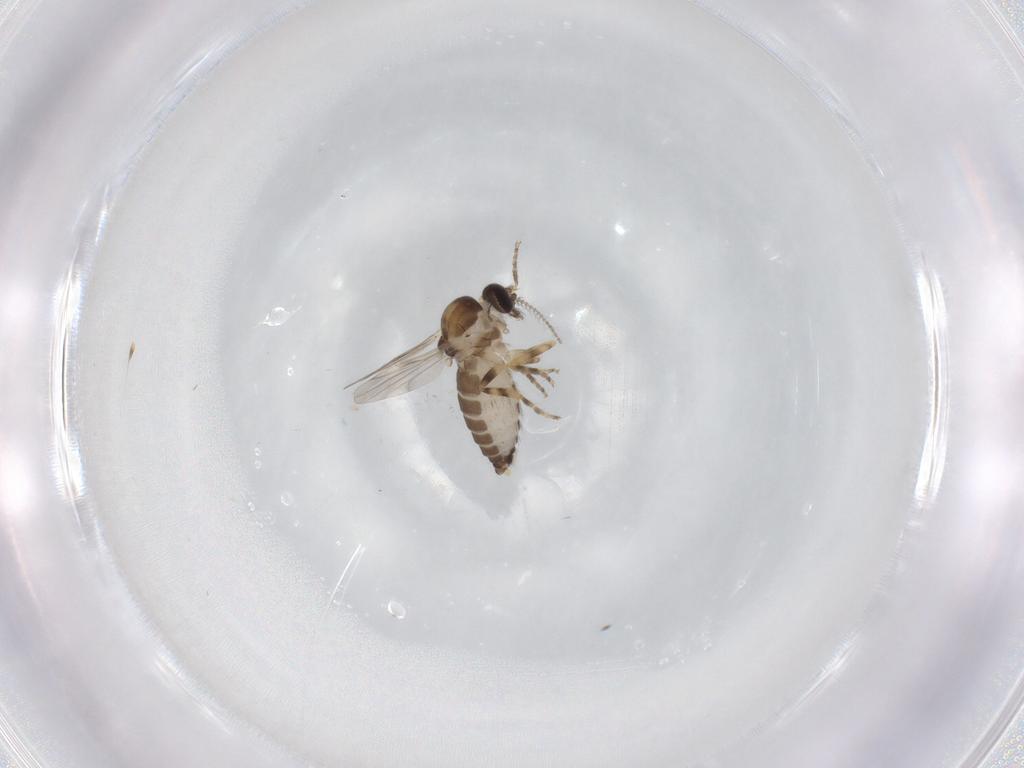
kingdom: Animalia
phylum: Arthropoda
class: Insecta
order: Diptera
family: Ceratopogonidae
